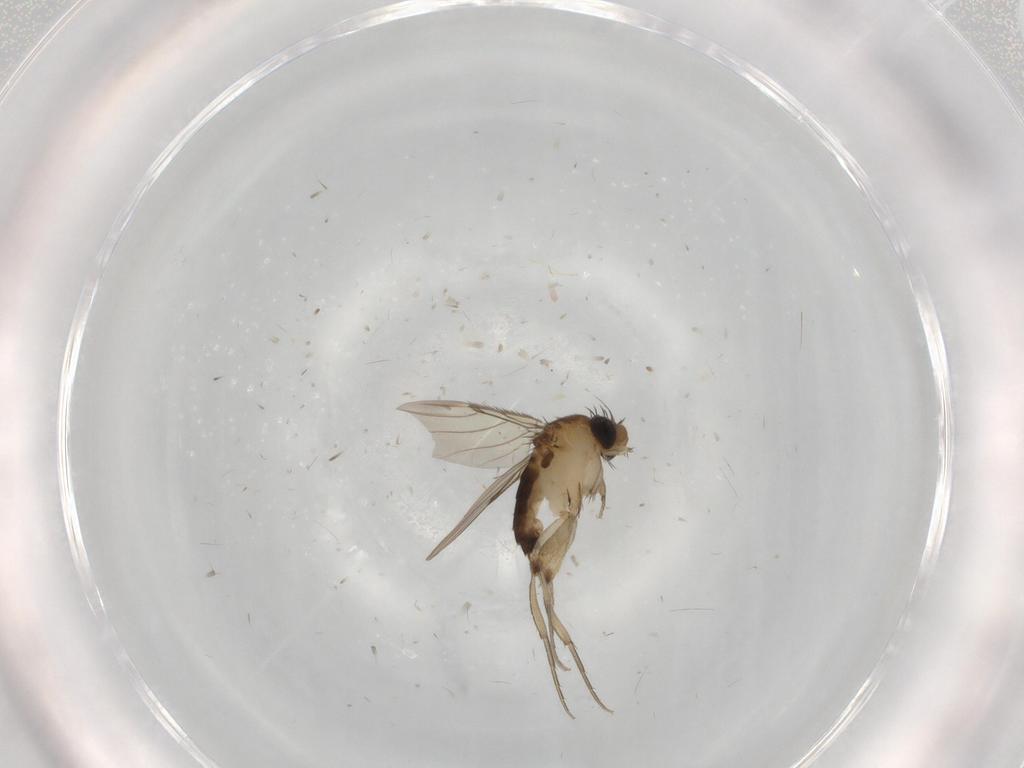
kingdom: Animalia
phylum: Arthropoda
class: Insecta
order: Diptera
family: Phoridae
